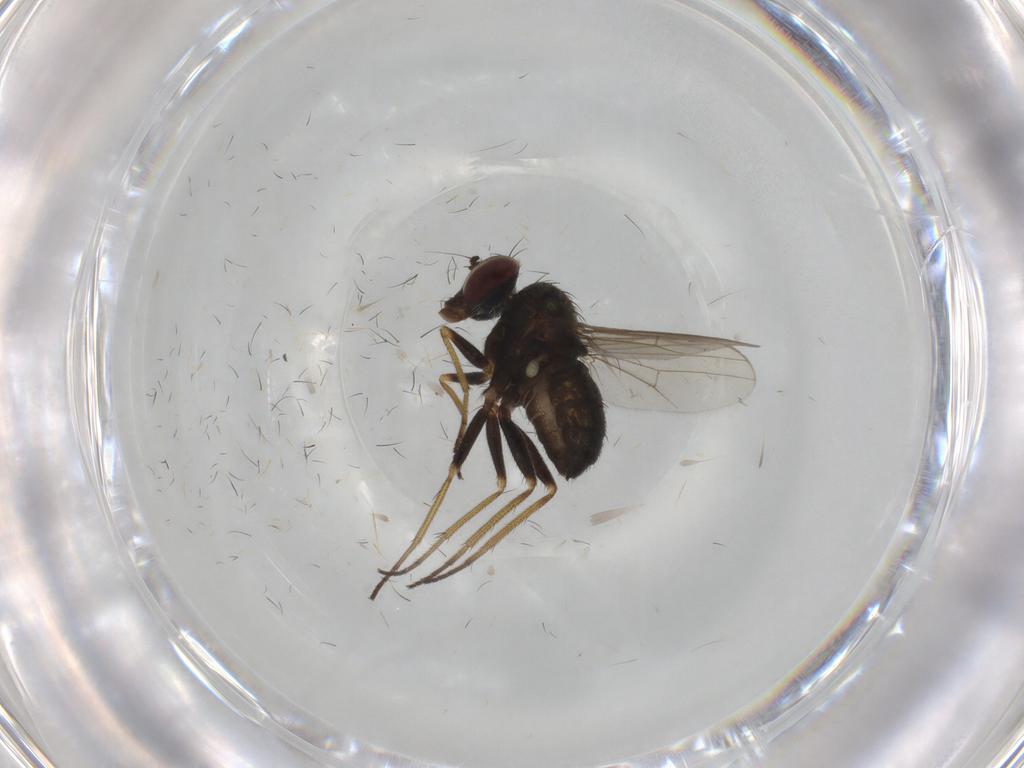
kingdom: Animalia
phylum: Arthropoda
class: Insecta
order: Diptera
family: Dolichopodidae
